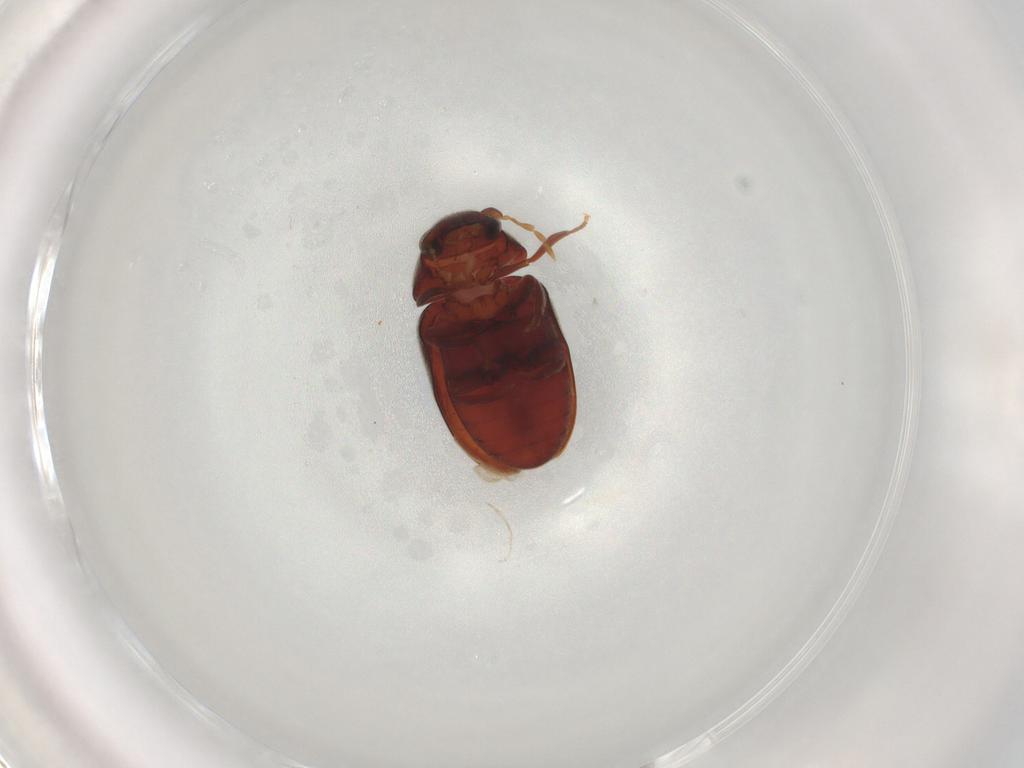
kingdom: Animalia
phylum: Arthropoda
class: Insecta
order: Coleoptera
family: Anobiidae
